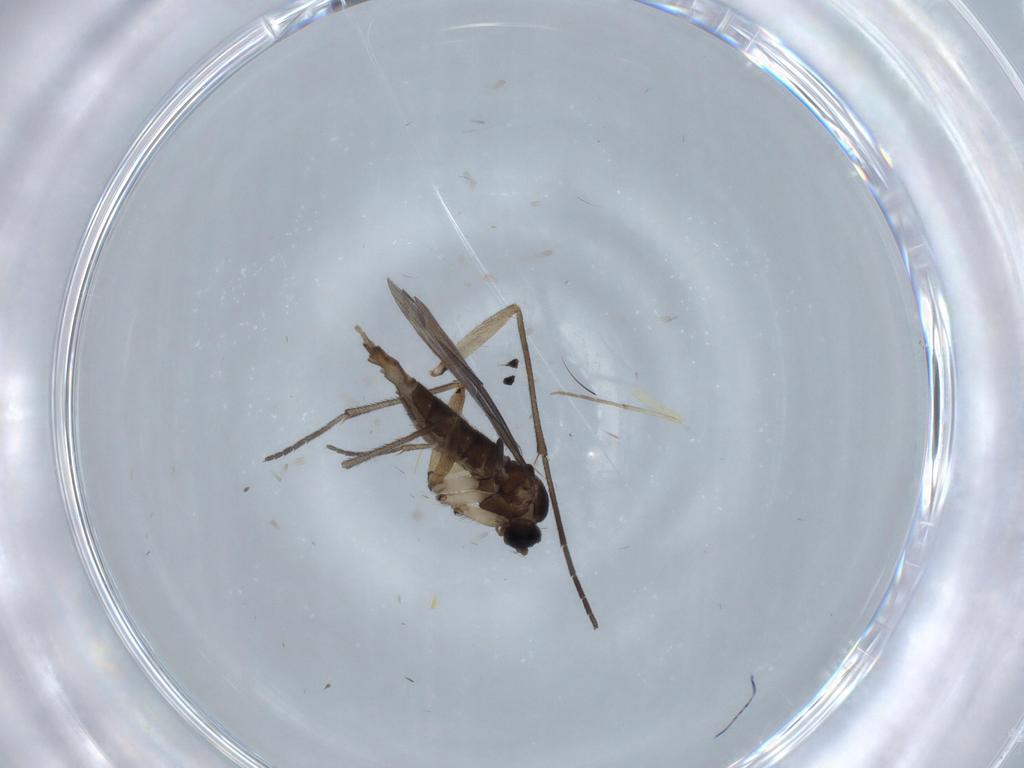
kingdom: Animalia
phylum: Arthropoda
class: Insecta
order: Diptera
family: Sciaridae
